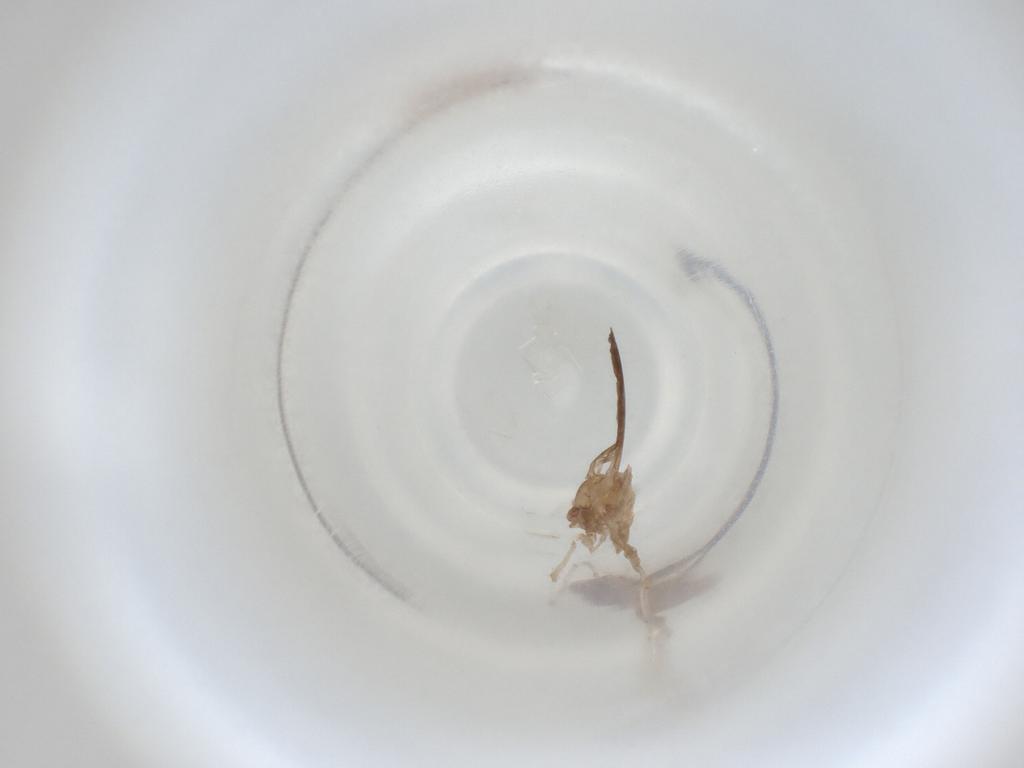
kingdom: Animalia
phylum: Arthropoda
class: Insecta
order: Diptera
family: Cecidomyiidae
